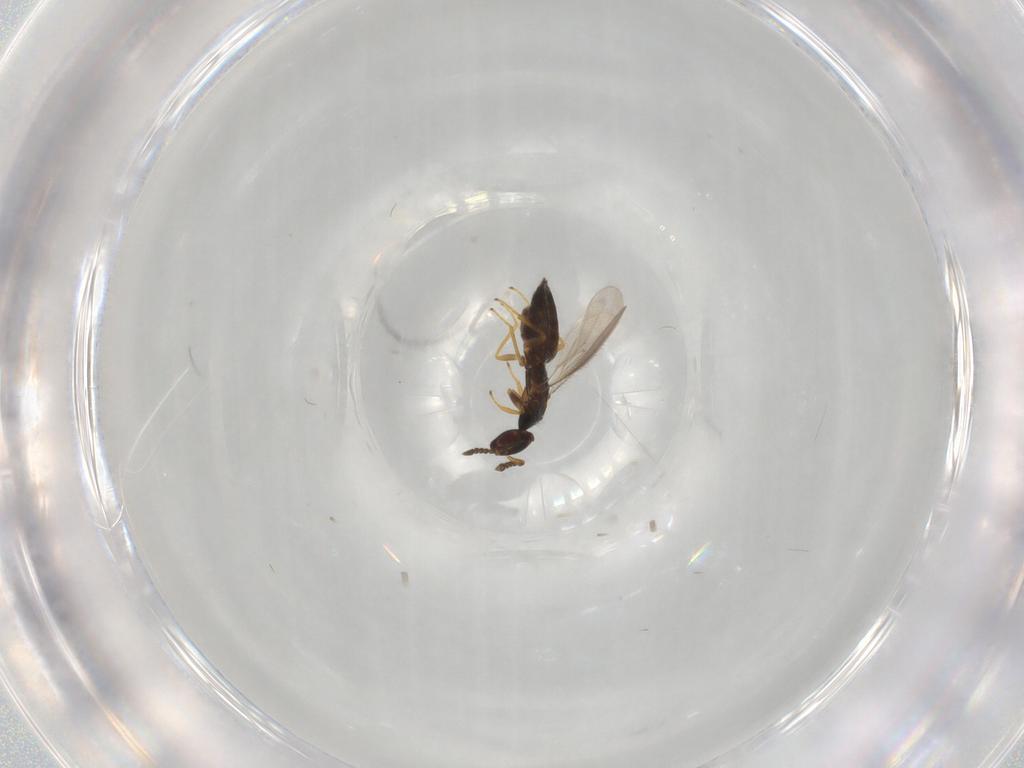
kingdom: Animalia
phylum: Arthropoda
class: Insecta
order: Hymenoptera
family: Eulophidae
